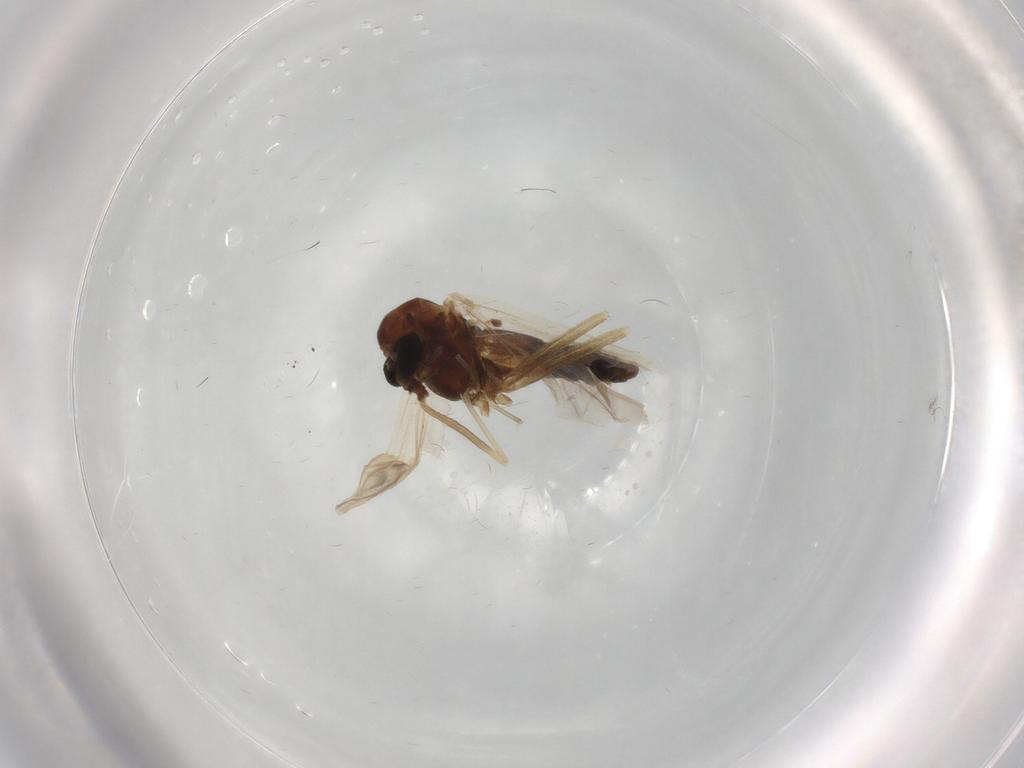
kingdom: Animalia
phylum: Arthropoda
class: Insecta
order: Diptera
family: Chironomidae
